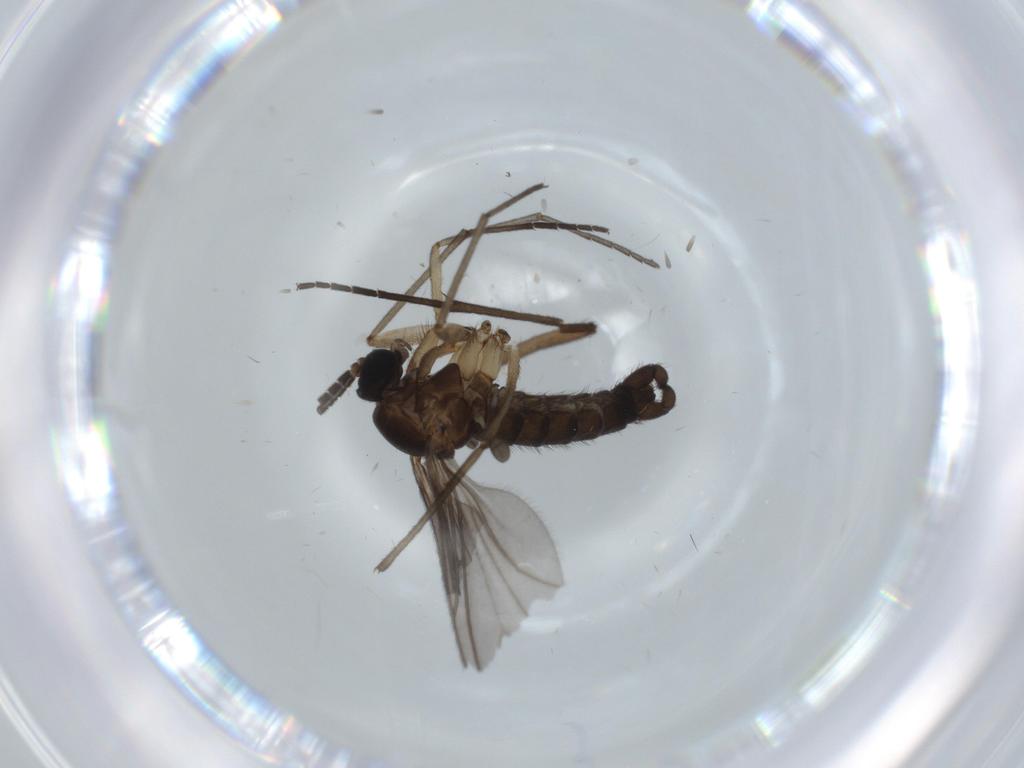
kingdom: Animalia
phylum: Arthropoda
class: Insecta
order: Diptera
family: Sciaridae
